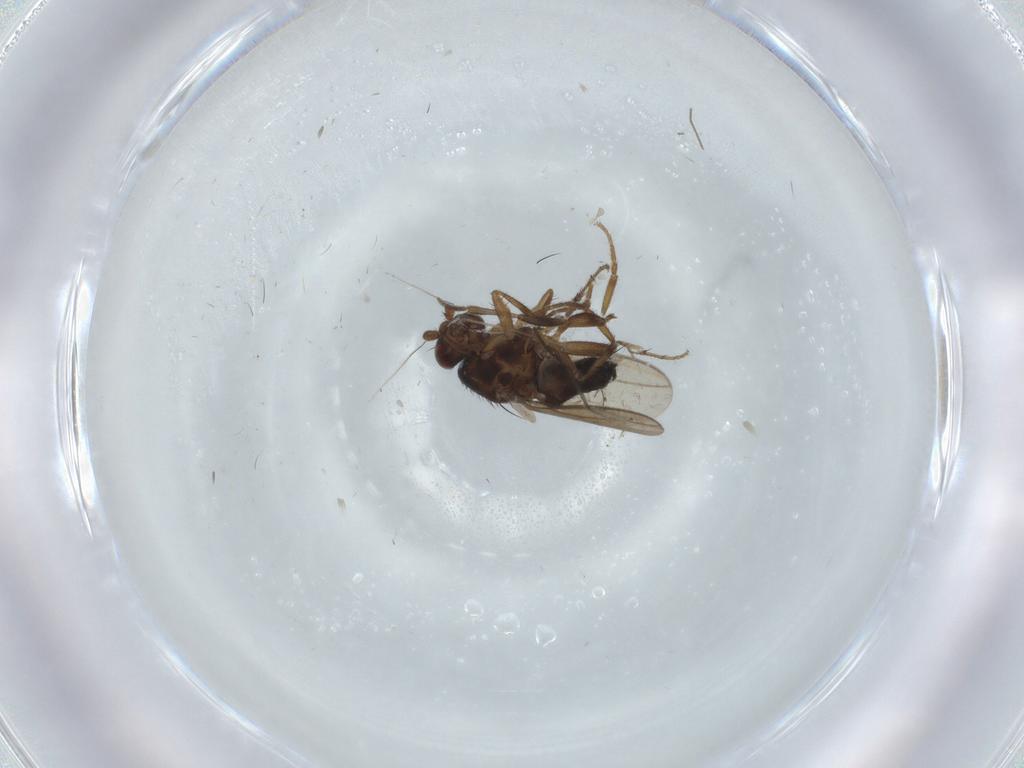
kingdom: Animalia
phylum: Arthropoda
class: Insecta
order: Diptera
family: Sphaeroceridae
